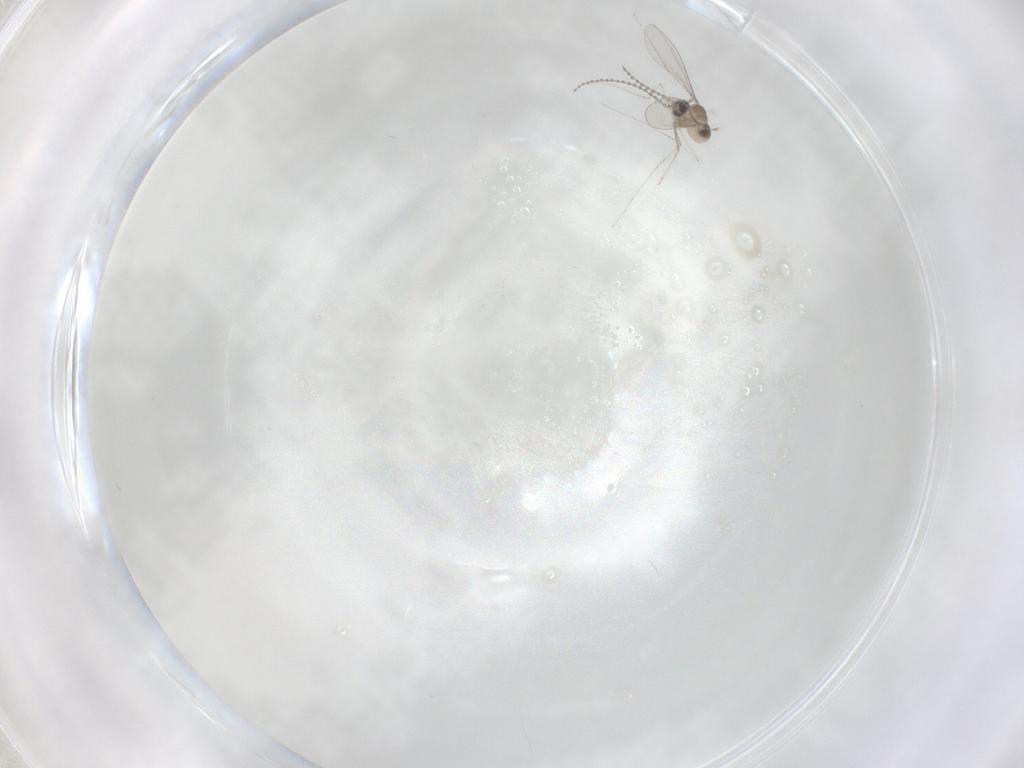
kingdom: Animalia
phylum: Arthropoda
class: Insecta
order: Diptera
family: Cecidomyiidae
